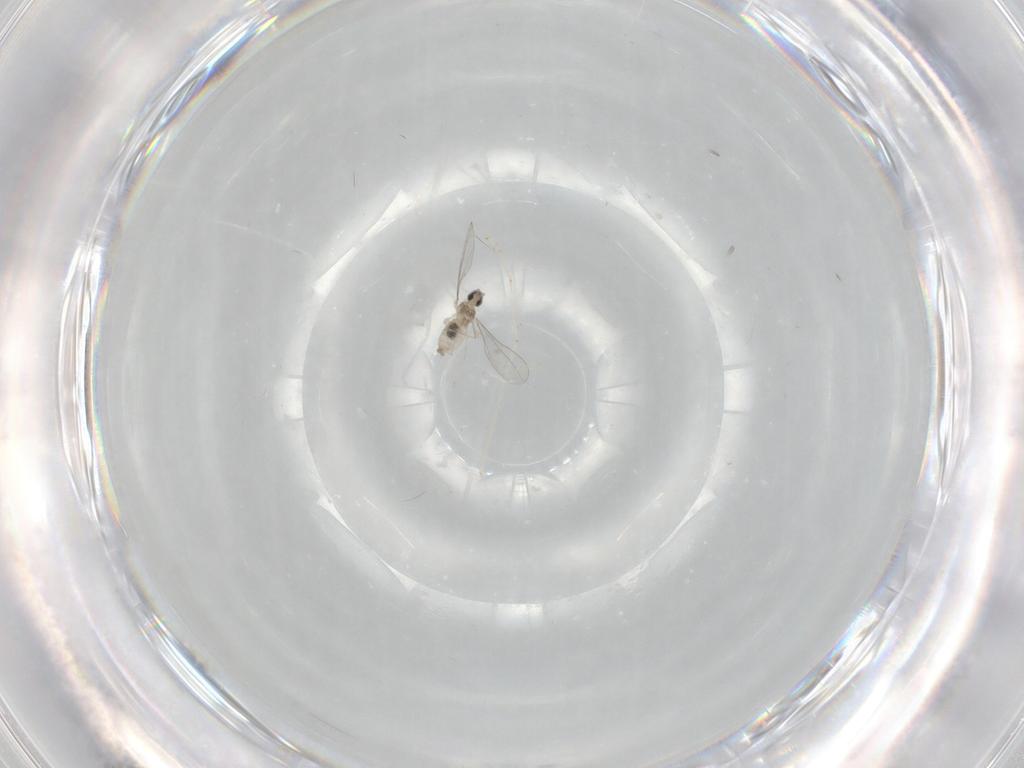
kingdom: Animalia
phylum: Arthropoda
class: Insecta
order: Diptera
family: Cecidomyiidae
